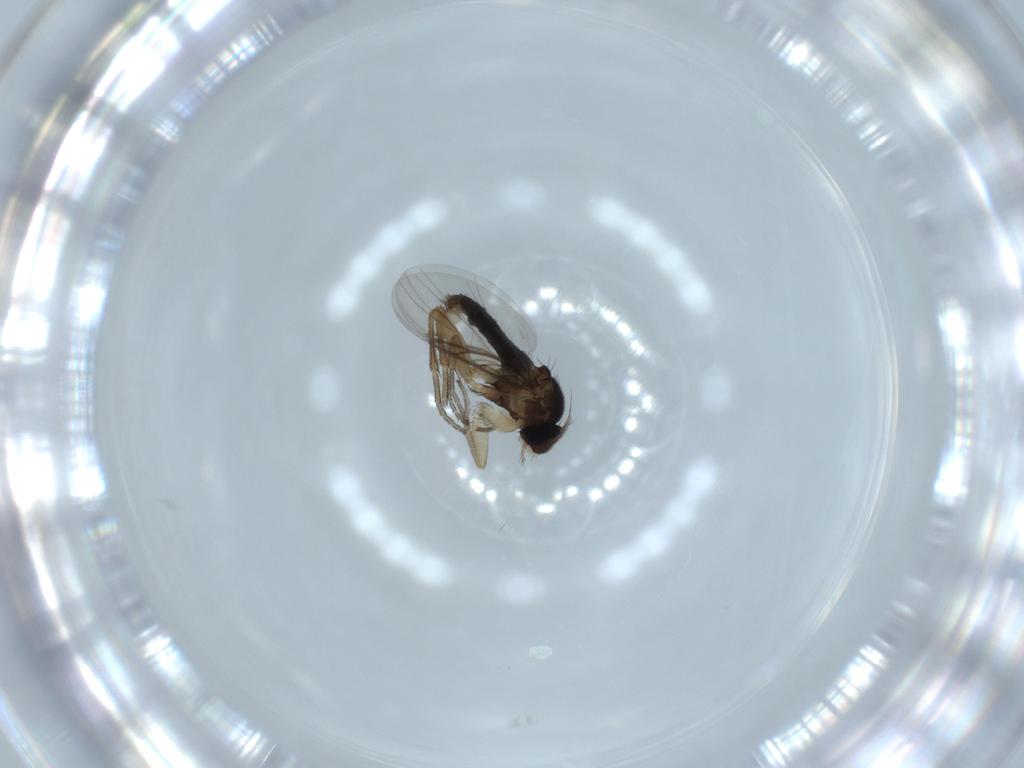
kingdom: Animalia
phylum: Arthropoda
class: Insecta
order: Diptera
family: Phoridae
